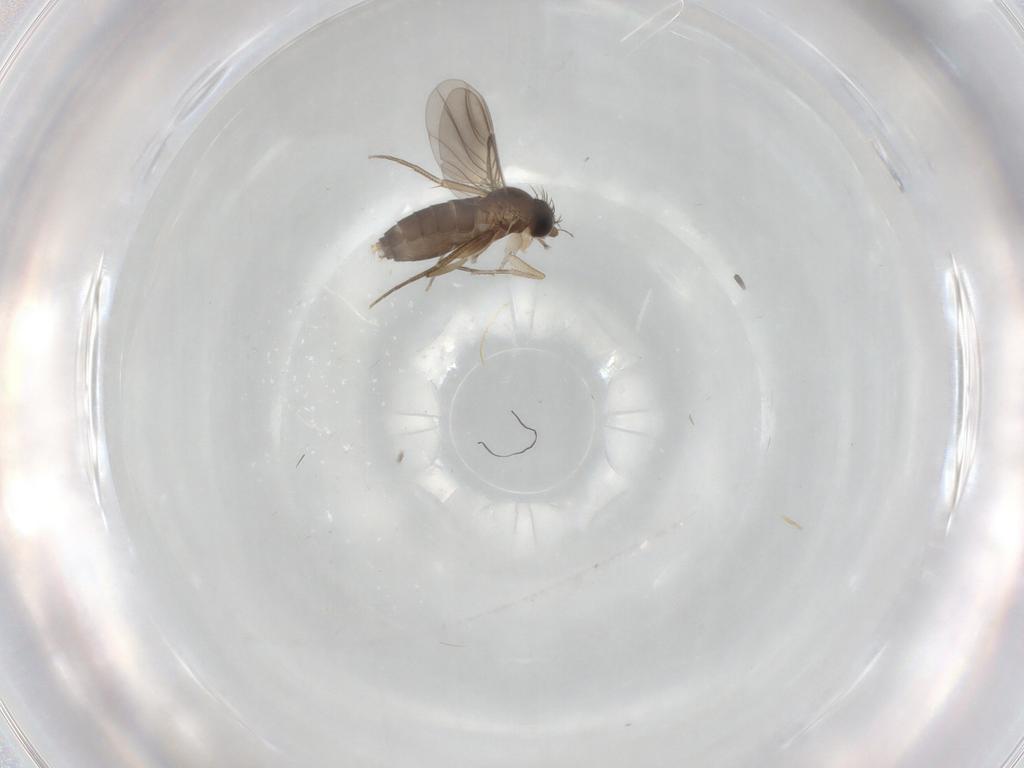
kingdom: Animalia
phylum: Arthropoda
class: Insecta
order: Diptera
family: Phoridae
